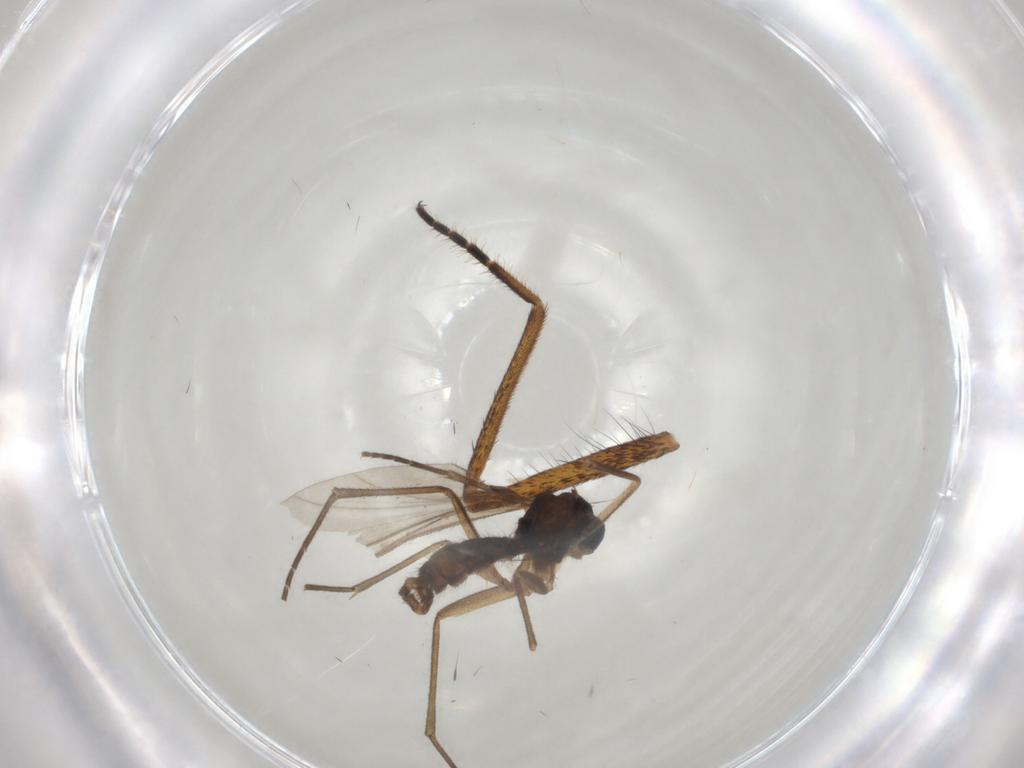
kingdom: Animalia
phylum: Arthropoda
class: Insecta
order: Diptera
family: Sciaridae
